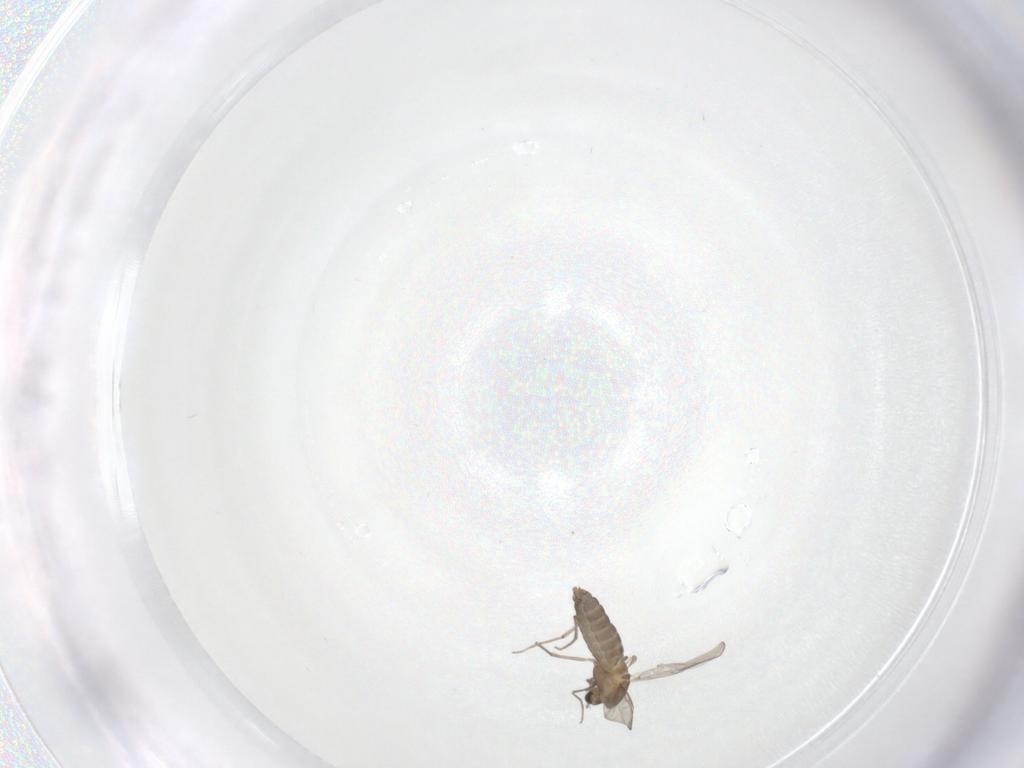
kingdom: Animalia
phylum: Arthropoda
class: Insecta
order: Diptera
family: Chironomidae
